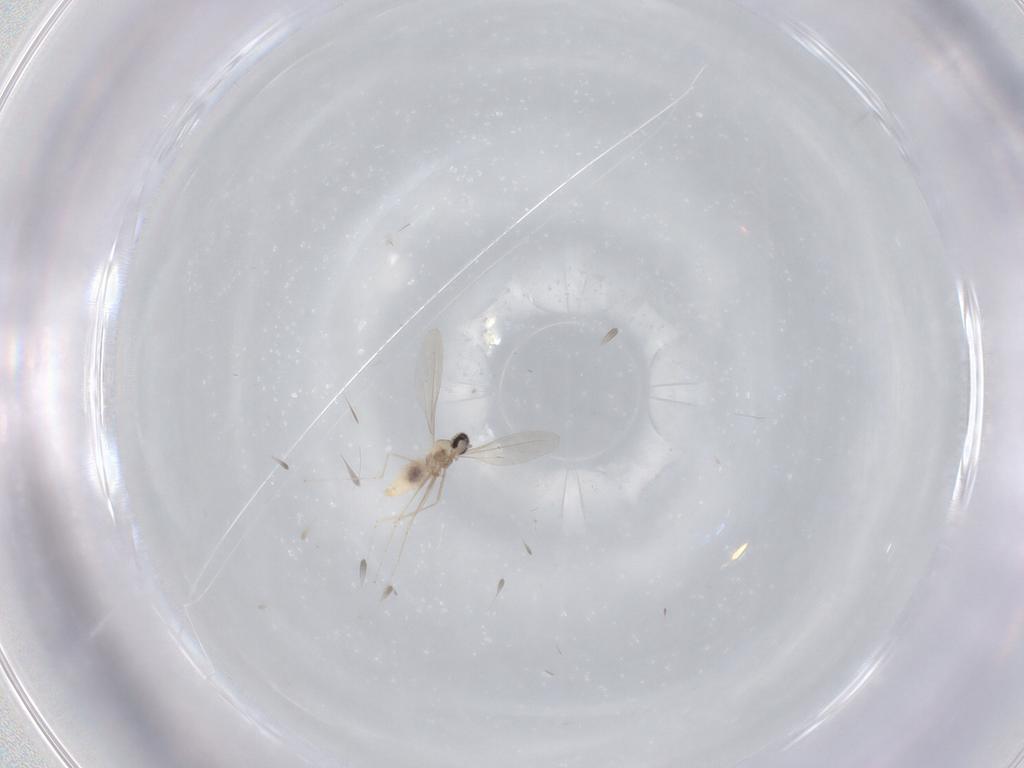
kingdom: Animalia
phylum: Arthropoda
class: Insecta
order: Diptera
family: Cecidomyiidae
